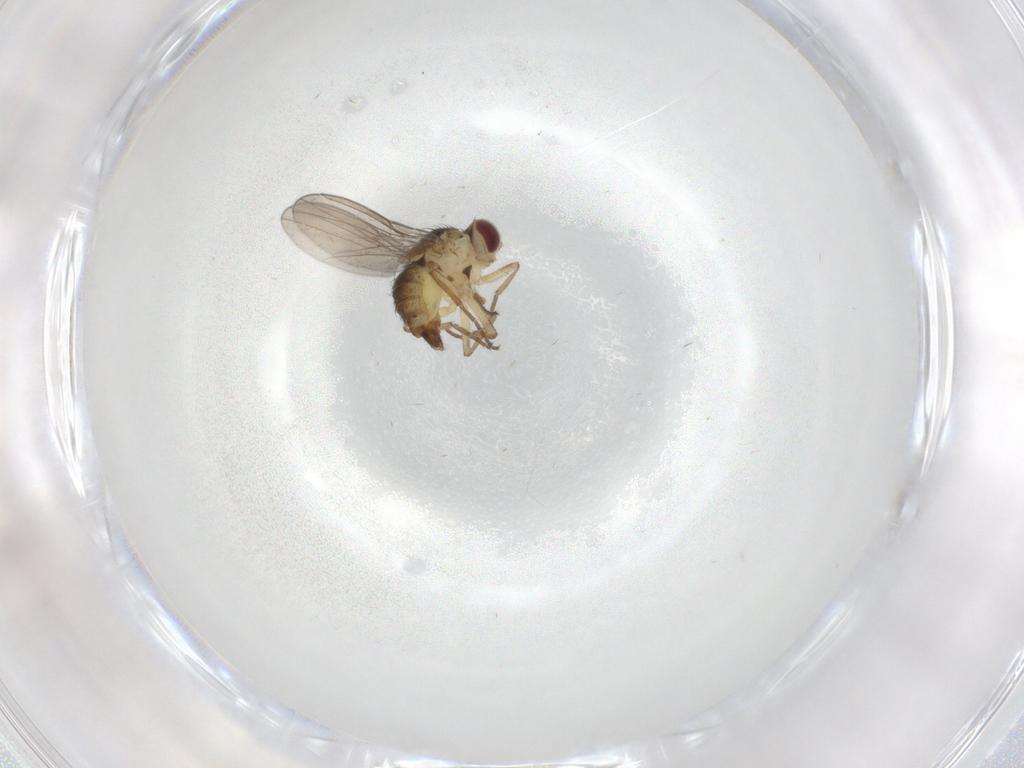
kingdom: Animalia
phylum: Arthropoda
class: Insecta
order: Diptera
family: Agromyzidae
